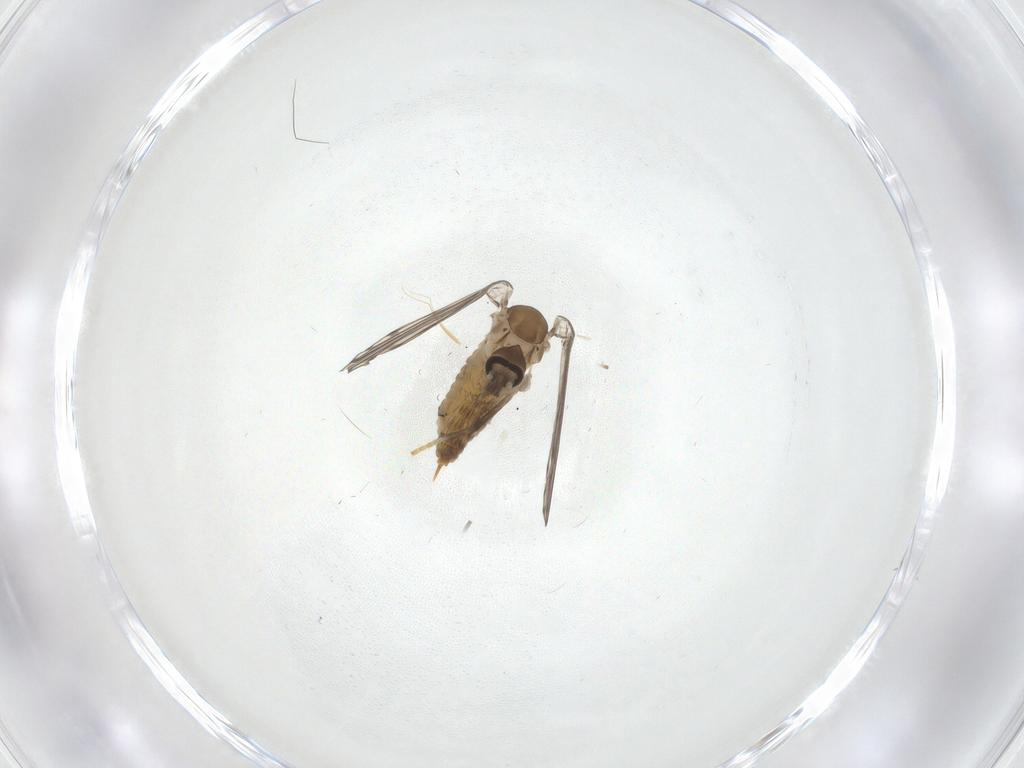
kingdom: Animalia
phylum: Arthropoda
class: Insecta
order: Diptera
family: Psychodidae
